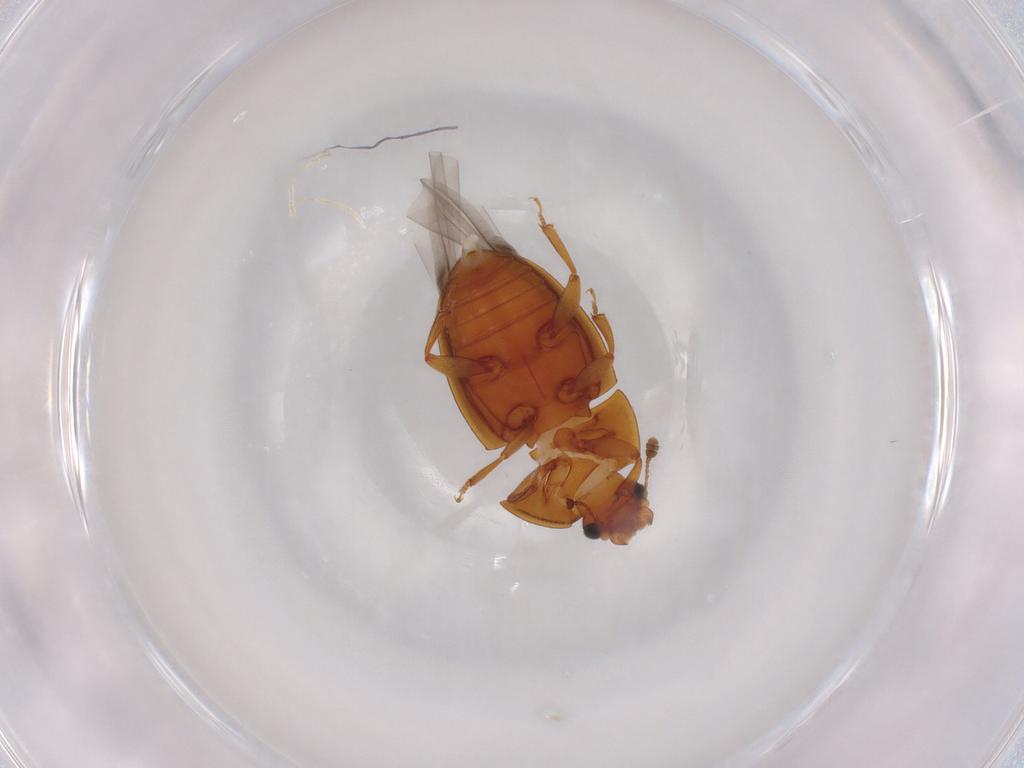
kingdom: Animalia
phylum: Arthropoda
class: Insecta
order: Coleoptera
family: Nitidulidae
